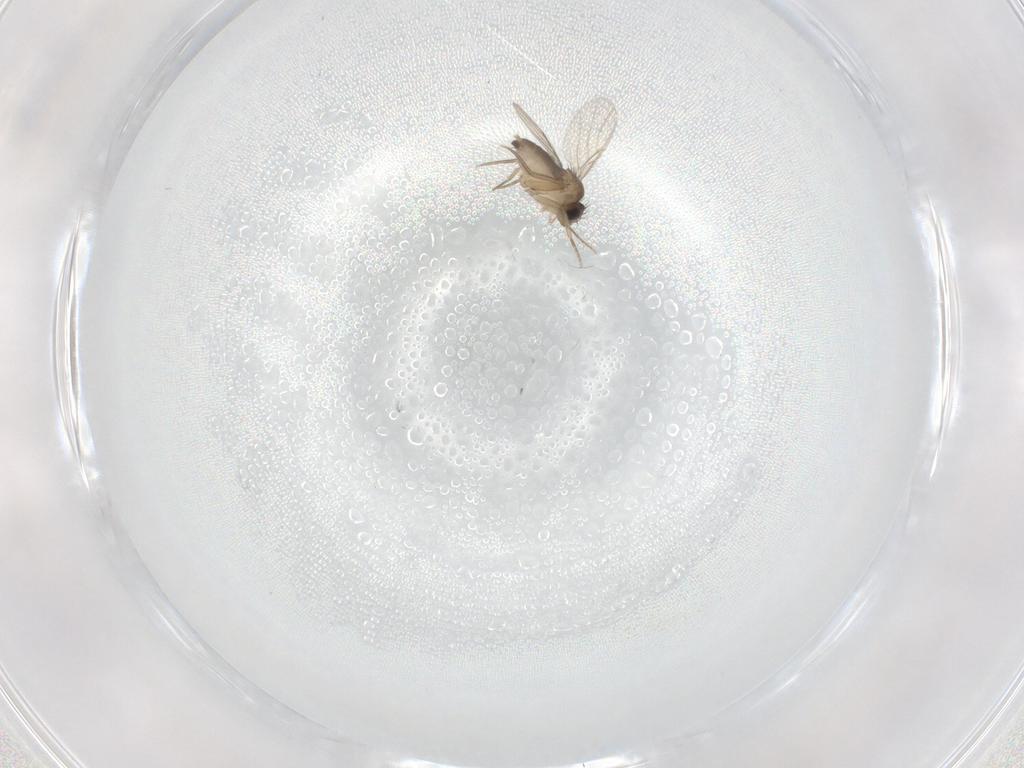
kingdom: Animalia
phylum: Arthropoda
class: Insecta
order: Diptera
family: Phoridae
